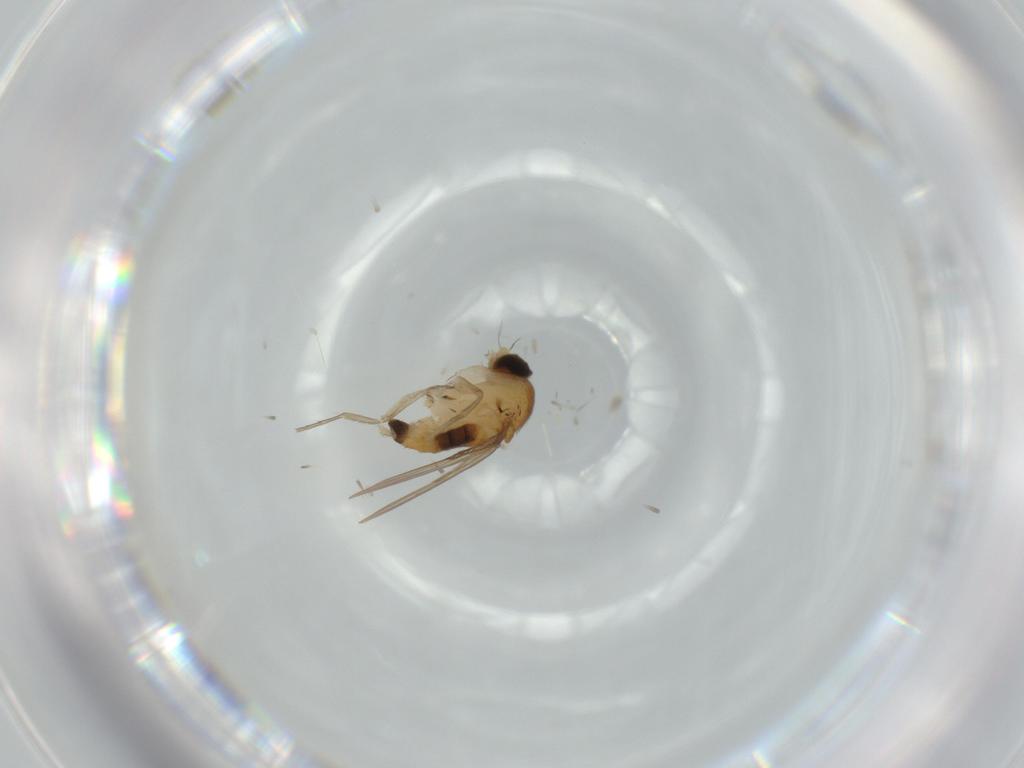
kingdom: Animalia
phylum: Arthropoda
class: Insecta
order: Diptera
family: Phoridae
